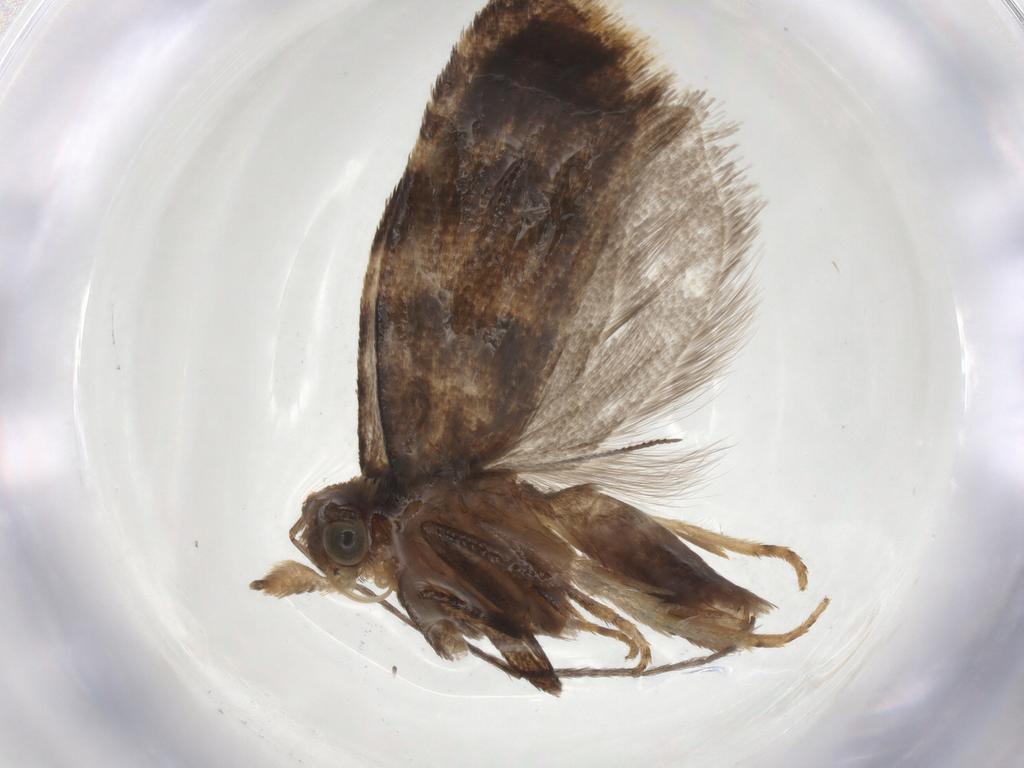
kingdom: Animalia
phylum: Arthropoda
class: Insecta
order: Lepidoptera
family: Tortricidae
